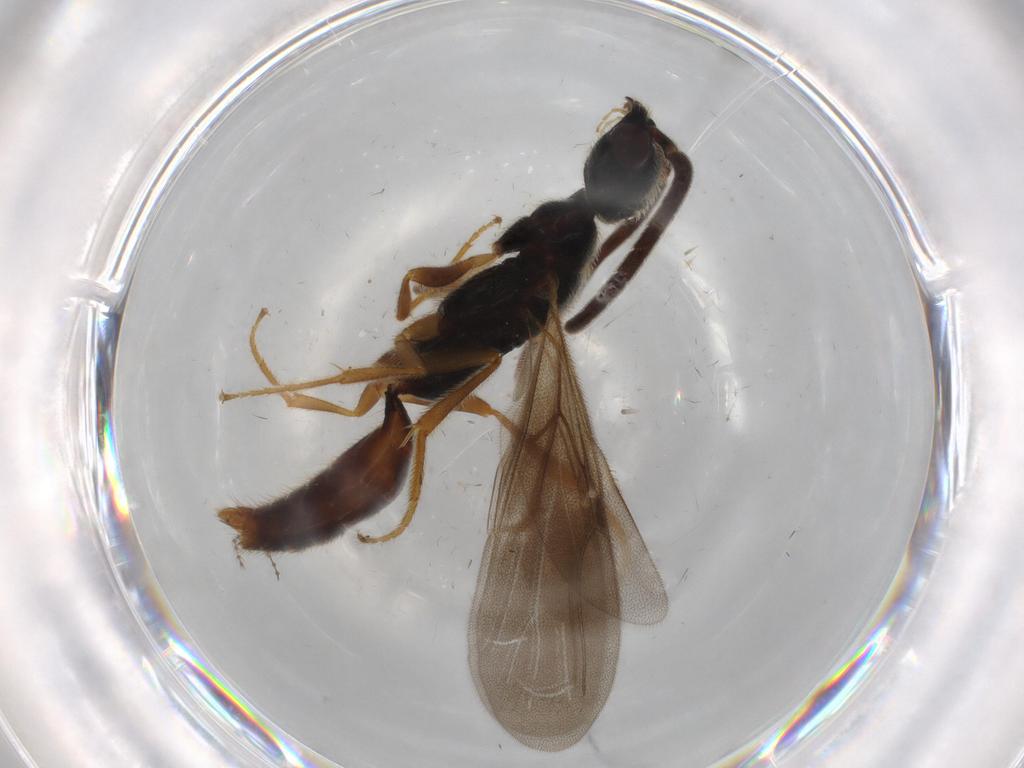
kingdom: Animalia
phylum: Arthropoda
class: Insecta
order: Hymenoptera
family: Bethylidae
